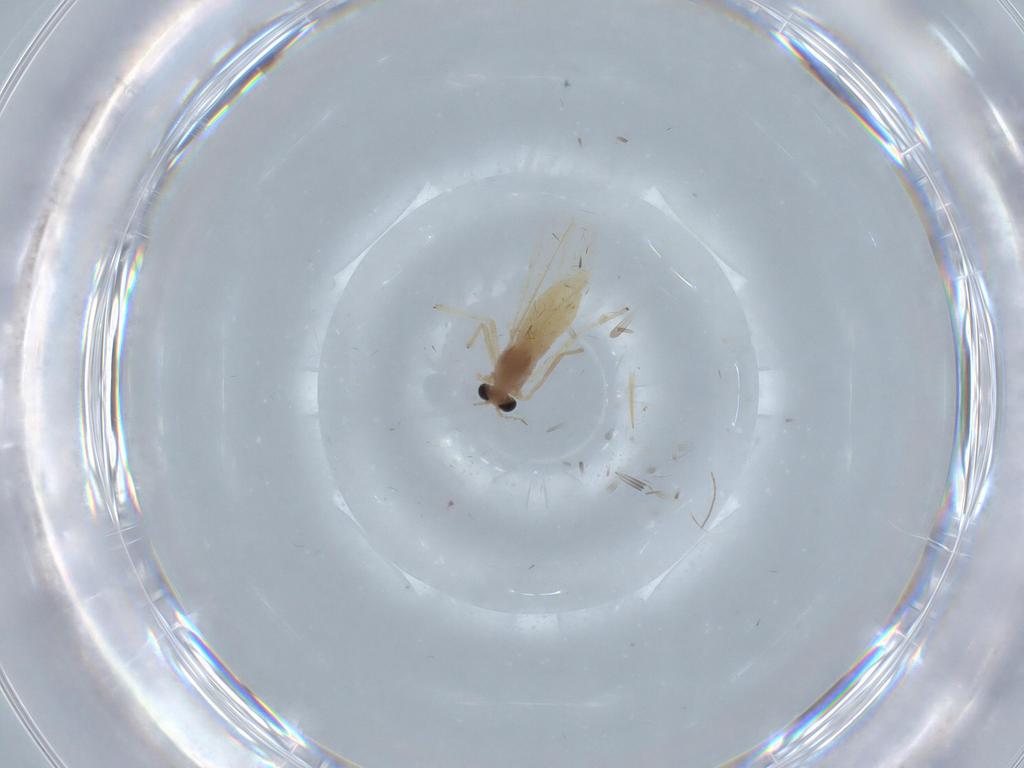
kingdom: Animalia
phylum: Arthropoda
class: Insecta
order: Diptera
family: Chironomidae
